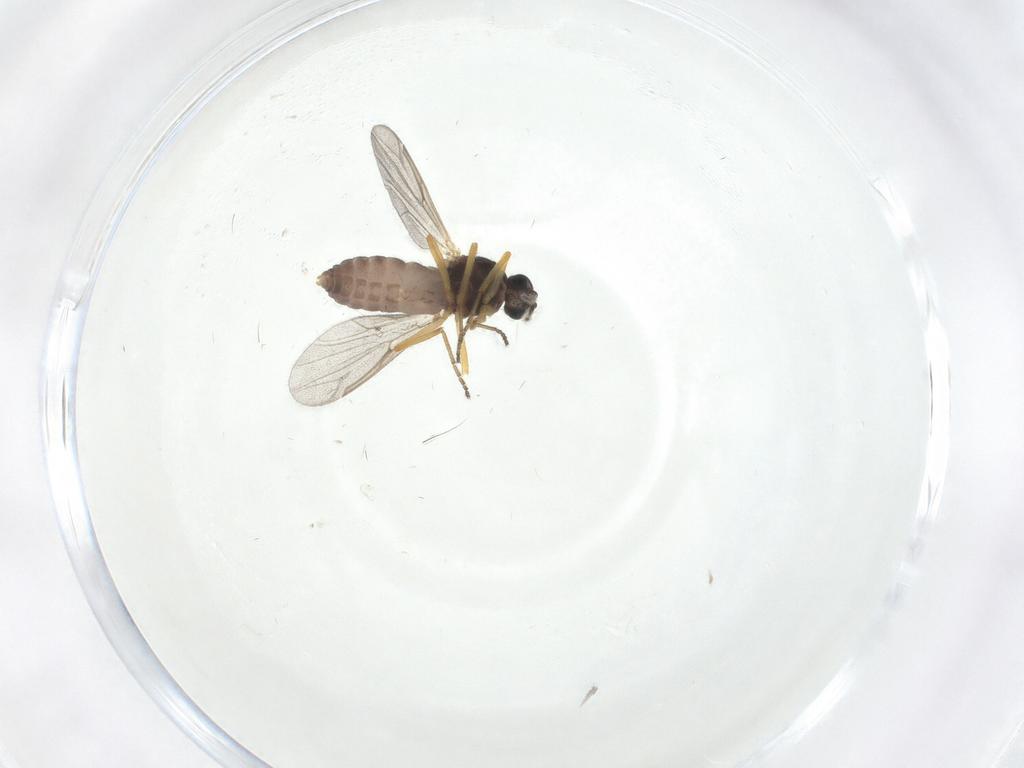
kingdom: Animalia
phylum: Arthropoda
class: Insecta
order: Diptera
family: Ceratopogonidae
